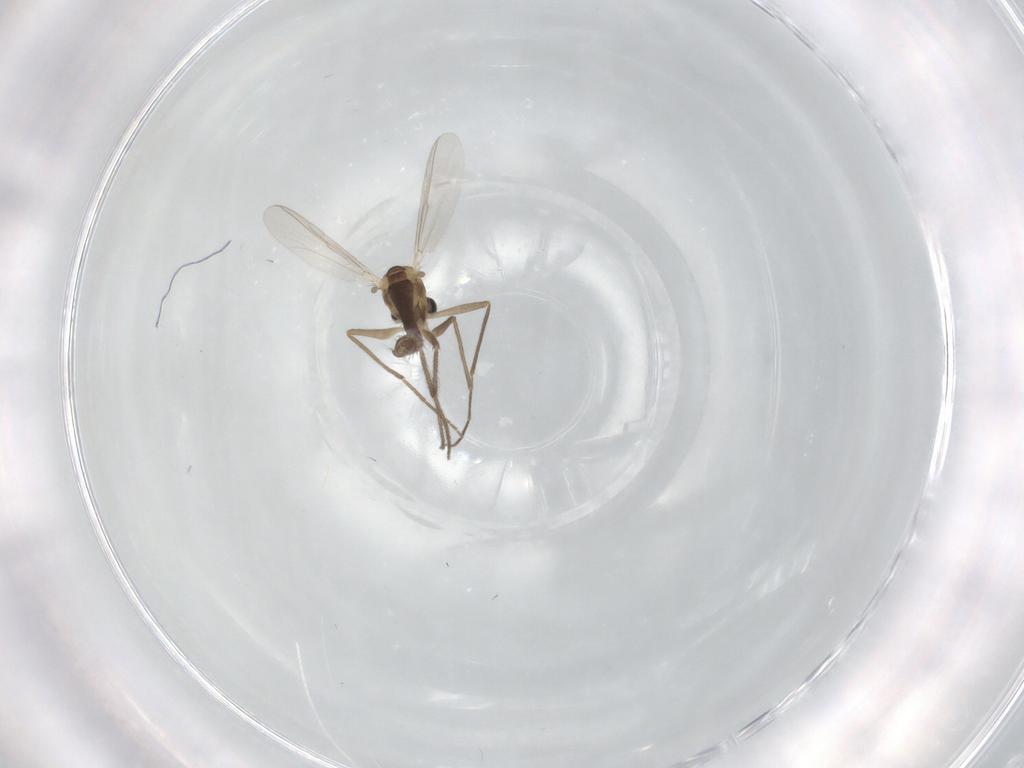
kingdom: Animalia
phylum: Arthropoda
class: Insecta
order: Diptera
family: Chironomidae
